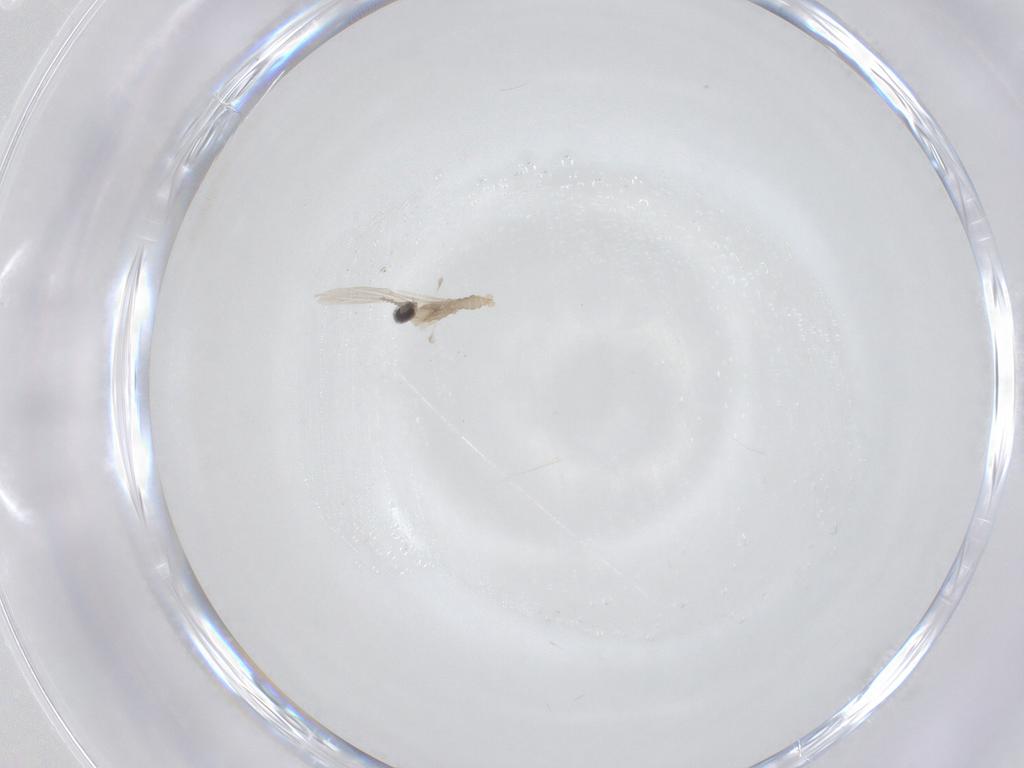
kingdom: Animalia
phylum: Arthropoda
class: Insecta
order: Diptera
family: Cecidomyiidae
